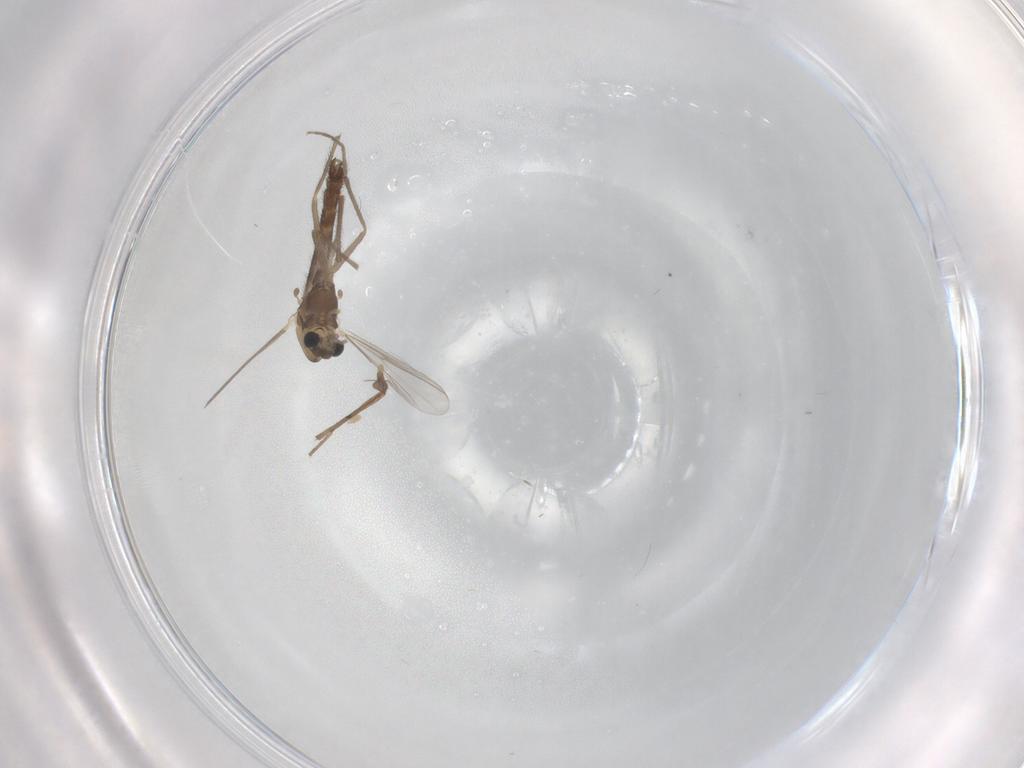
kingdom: Animalia
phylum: Arthropoda
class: Insecta
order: Diptera
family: Chironomidae
